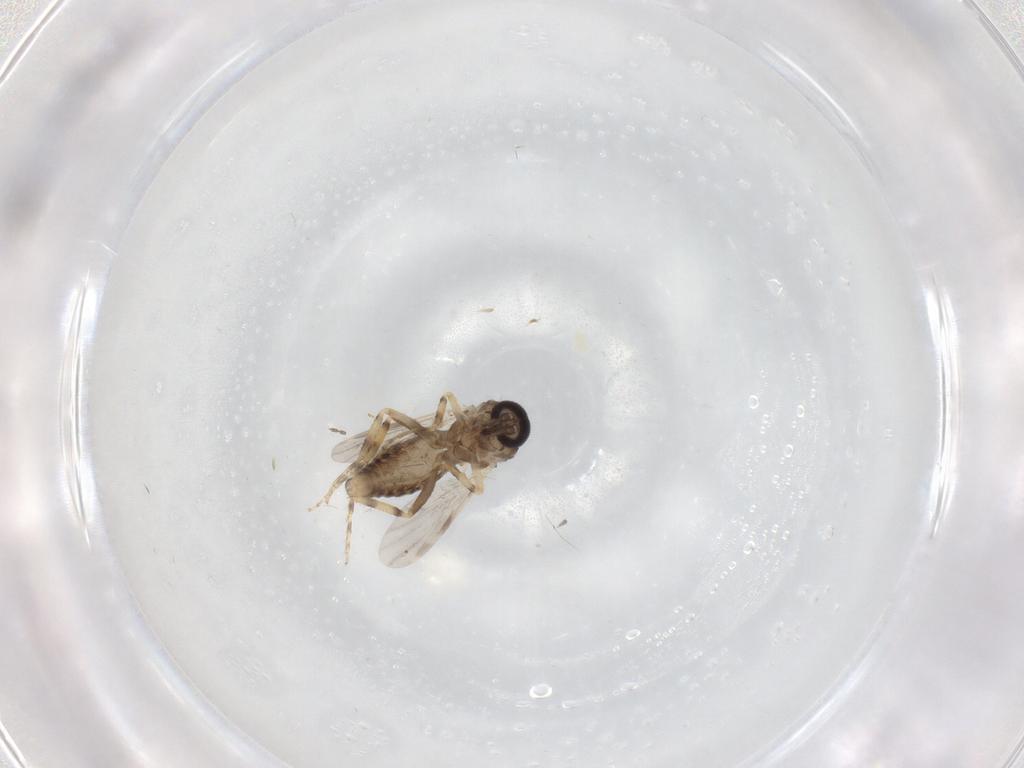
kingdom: Animalia
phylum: Arthropoda
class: Insecta
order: Diptera
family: Ceratopogonidae
